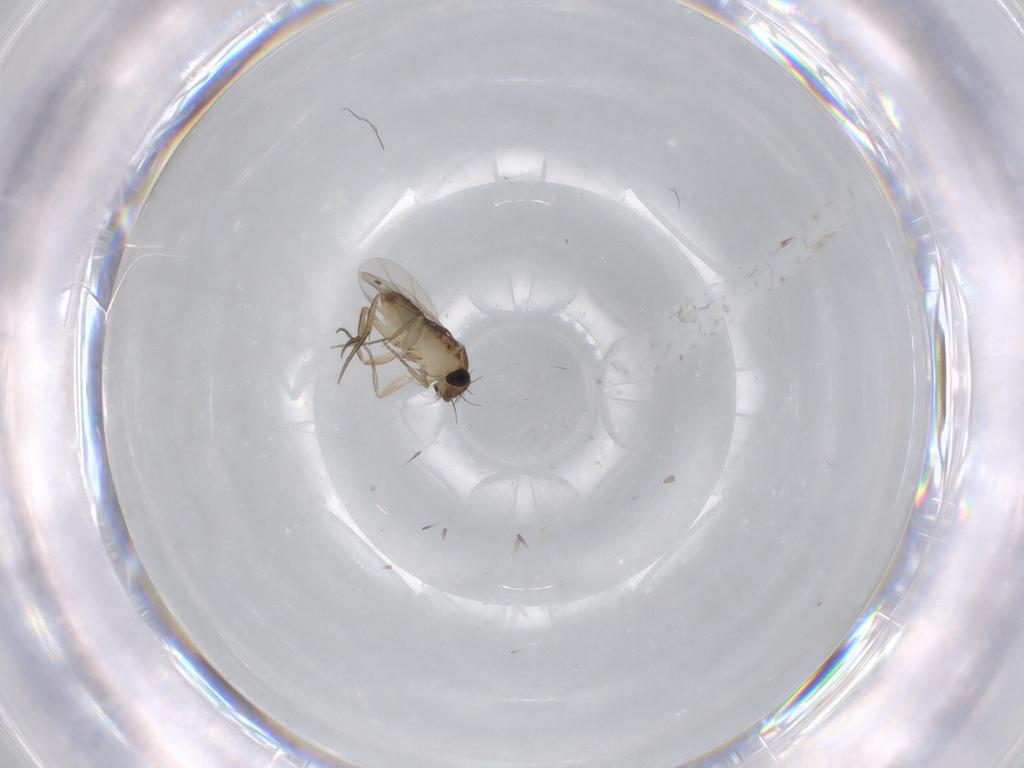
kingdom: Animalia
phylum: Arthropoda
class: Insecta
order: Diptera
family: Phoridae
